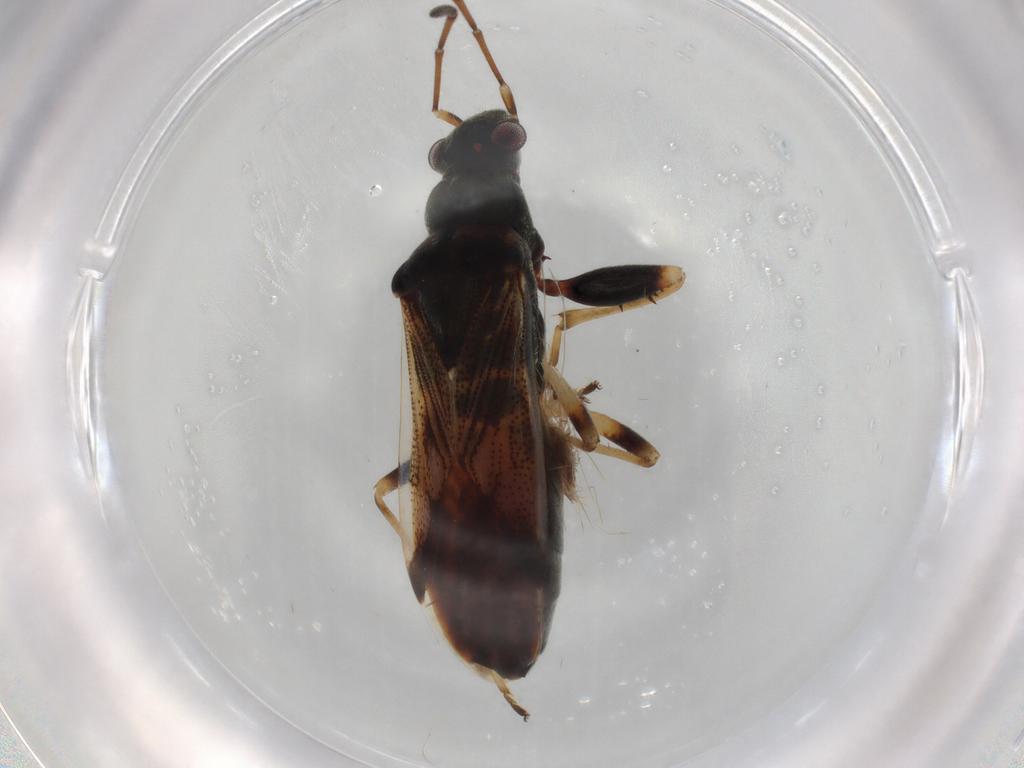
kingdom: Animalia
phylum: Arthropoda
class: Insecta
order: Hemiptera
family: Rhyparochromidae
